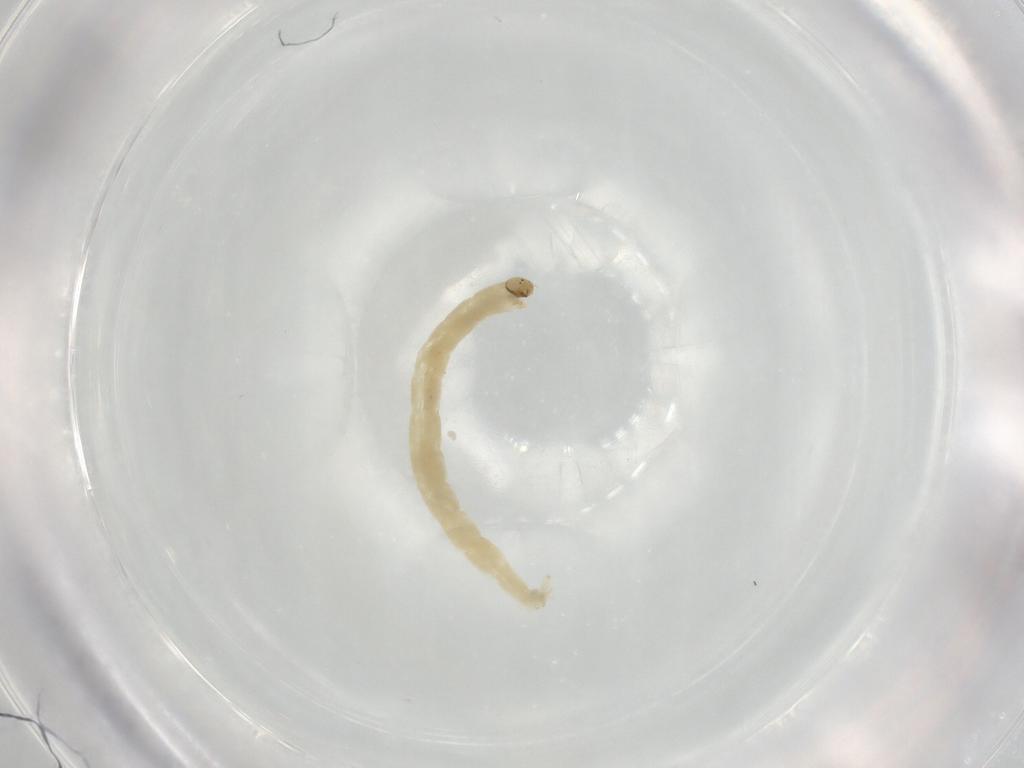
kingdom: Animalia
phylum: Arthropoda
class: Insecta
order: Diptera
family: Chironomidae
